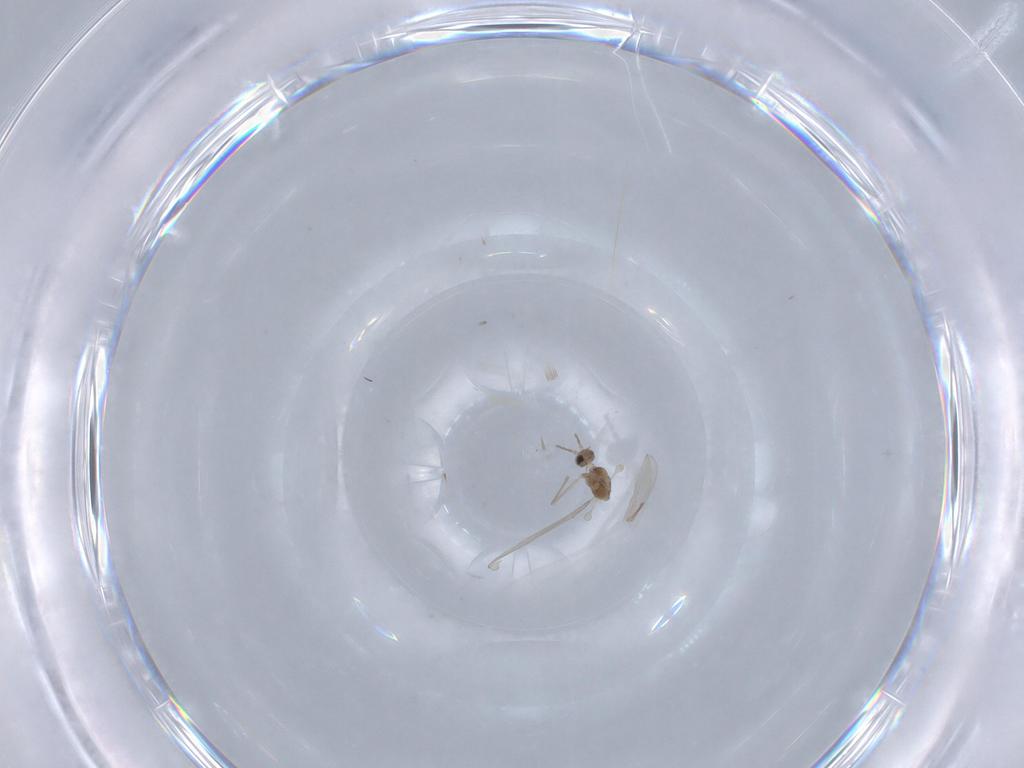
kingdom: Animalia
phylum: Arthropoda
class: Insecta
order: Diptera
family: Cecidomyiidae
